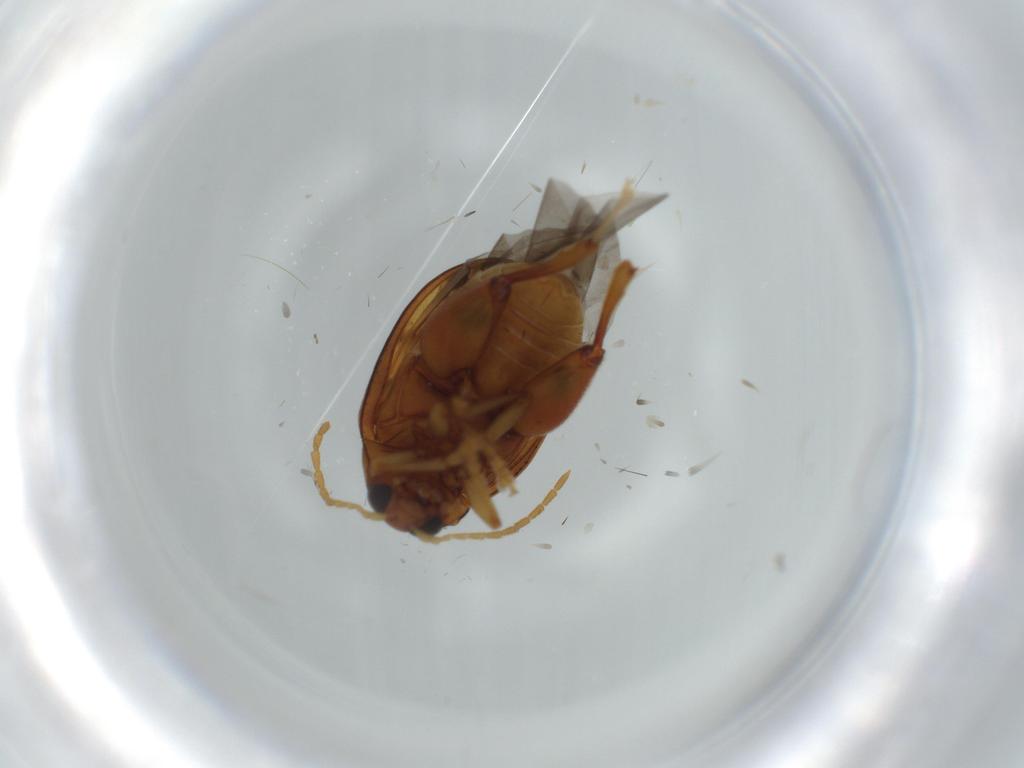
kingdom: Animalia
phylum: Arthropoda
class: Insecta
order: Coleoptera
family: Chrysomelidae
